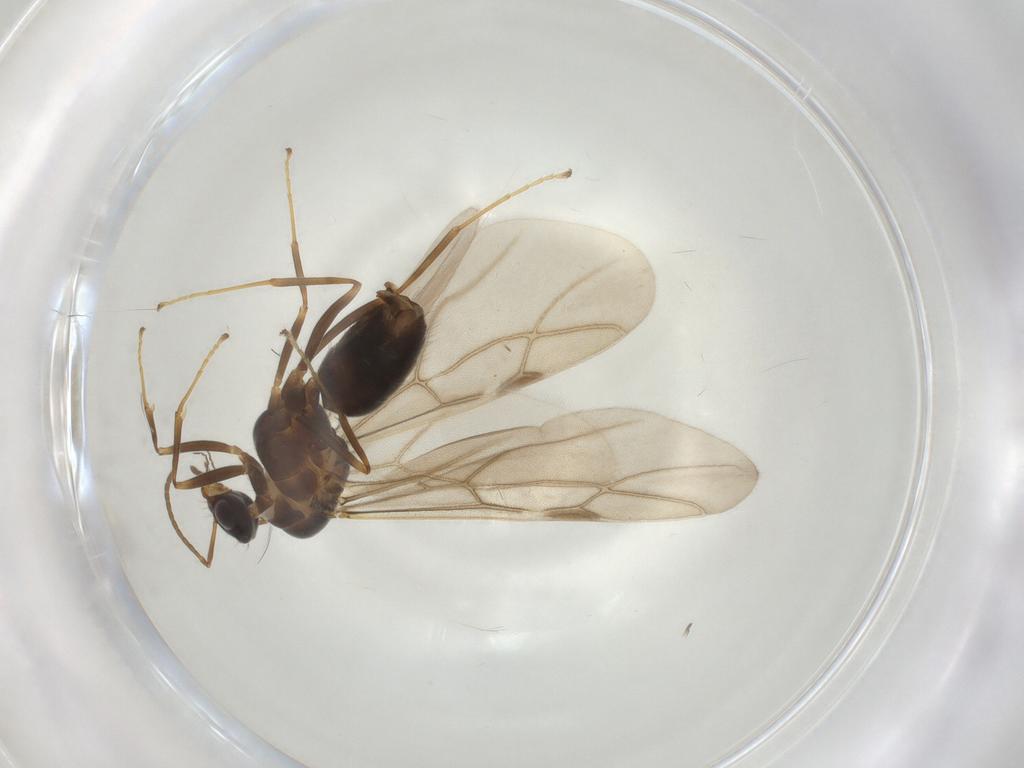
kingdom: Animalia
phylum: Arthropoda
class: Insecta
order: Hymenoptera
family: Formicidae
